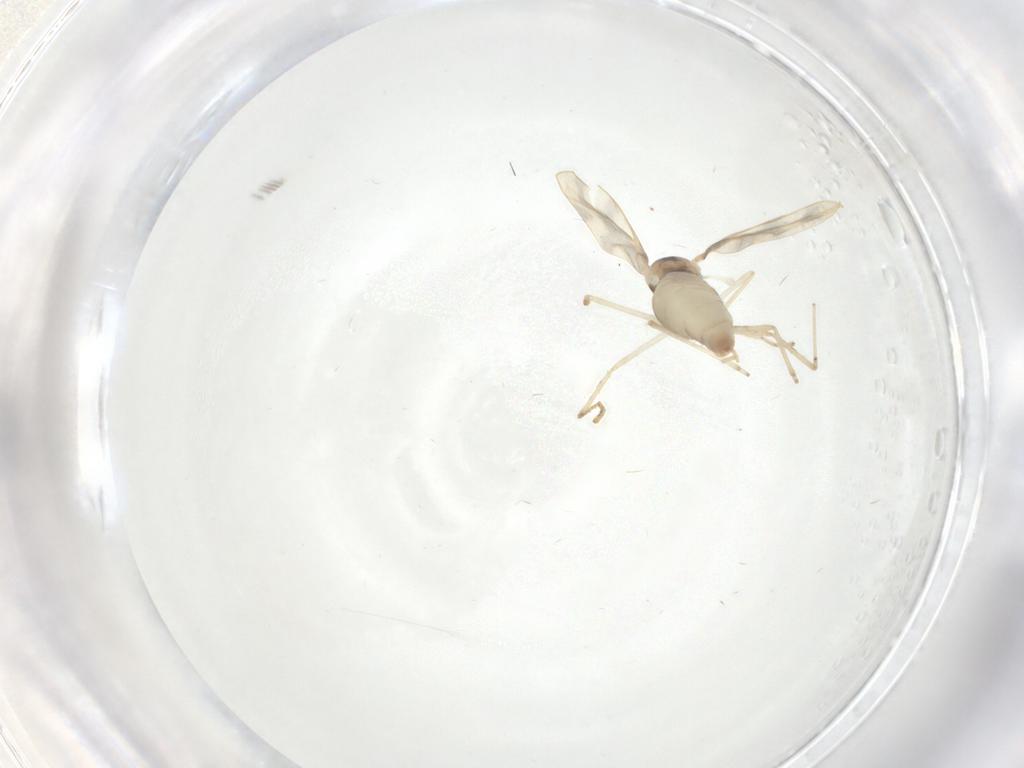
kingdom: Animalia
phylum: Arthropoda
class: Insecta
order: Diptera
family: Cecidomyiidae
